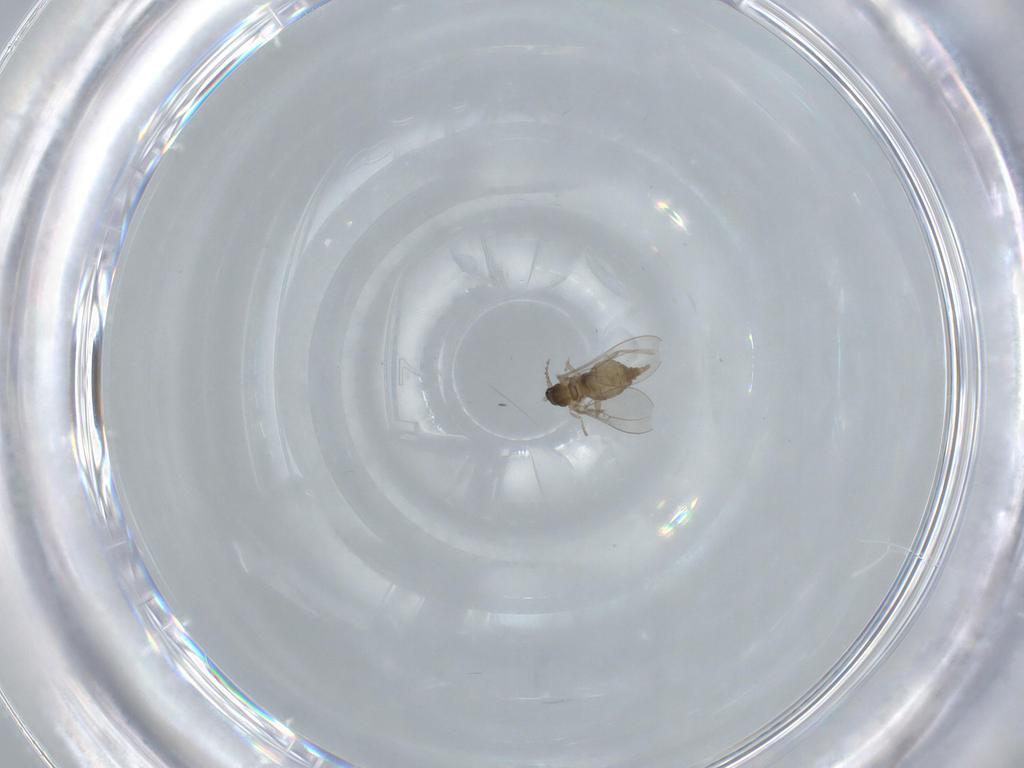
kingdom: Animalia
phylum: Arthropoda
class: Insecta
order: Diptera
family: Cecidomyiidae
